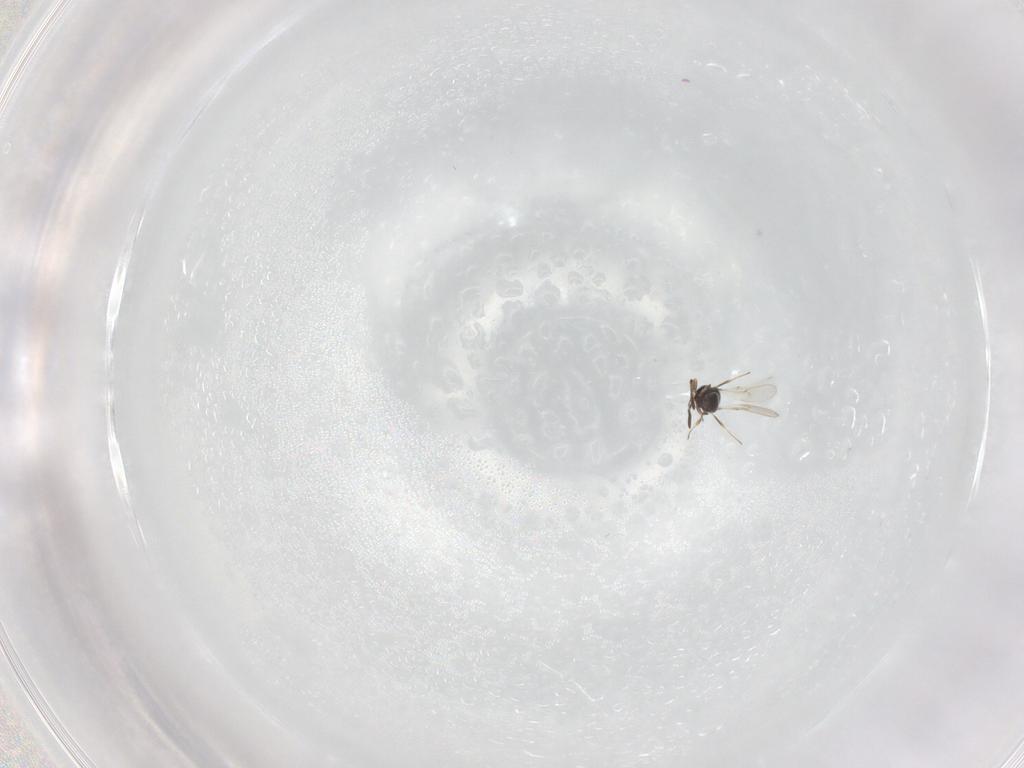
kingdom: Animalia
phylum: Arthropoda
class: Insecta
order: Hymenoptera
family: Scelionidae
